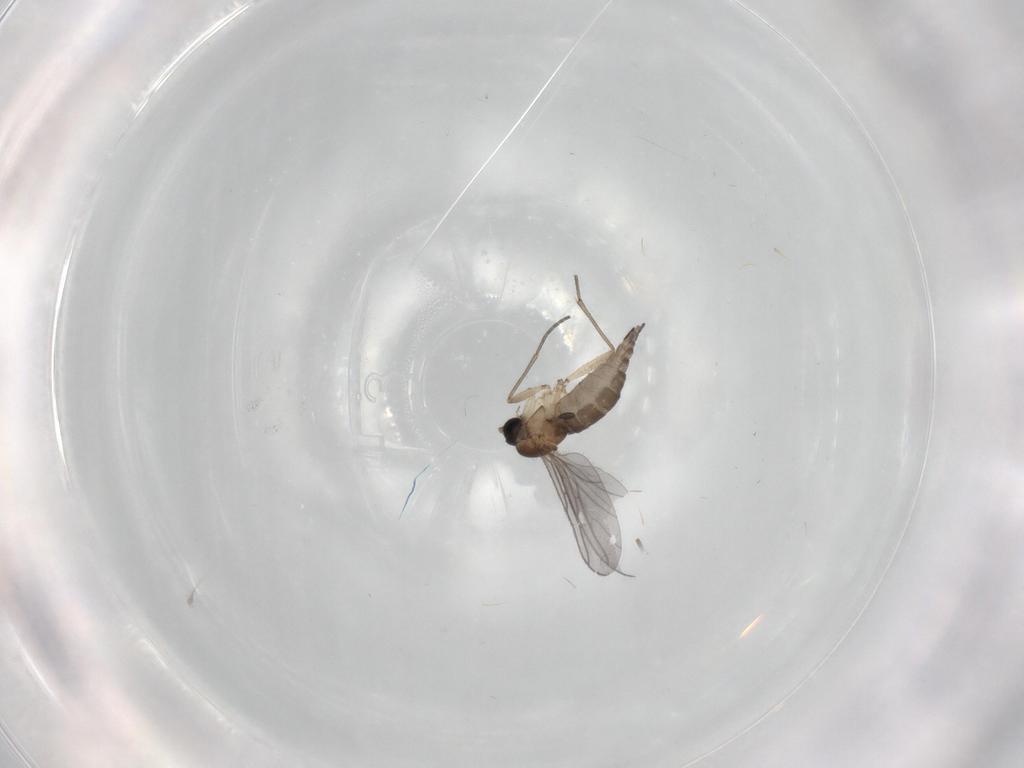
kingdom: Animalia
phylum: Arthropoda
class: Insecta
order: Diptera
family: Sciaridae
